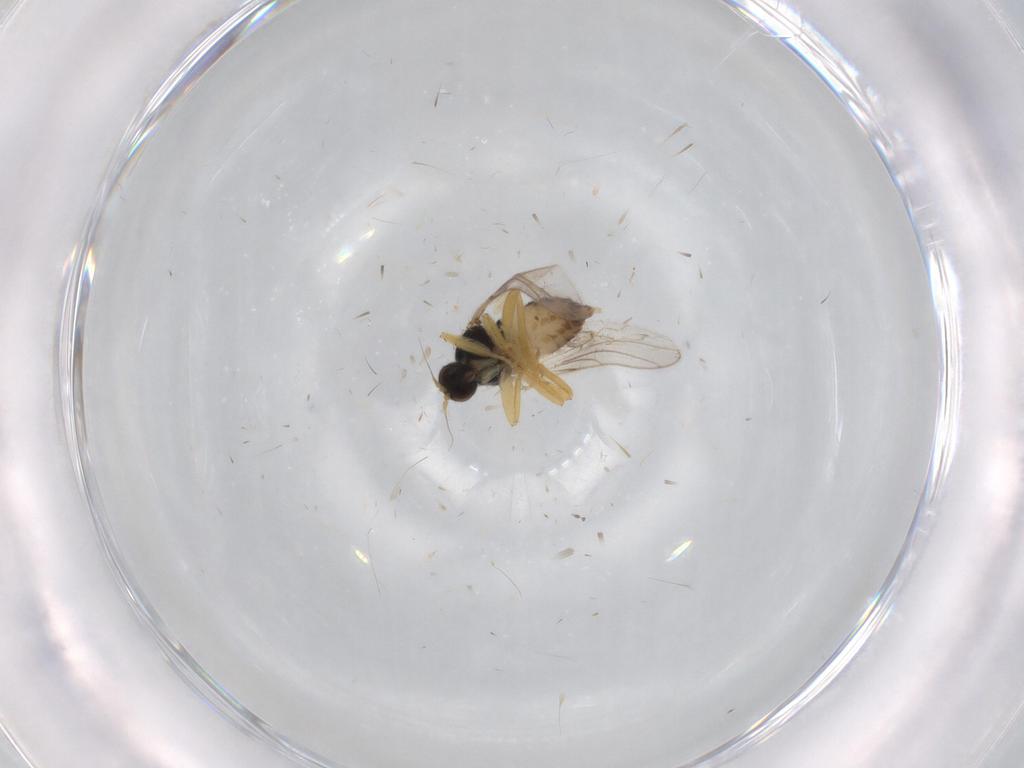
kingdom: Animalia
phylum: Arthropoda
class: Insecta
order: Diptera
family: Hybotidae
